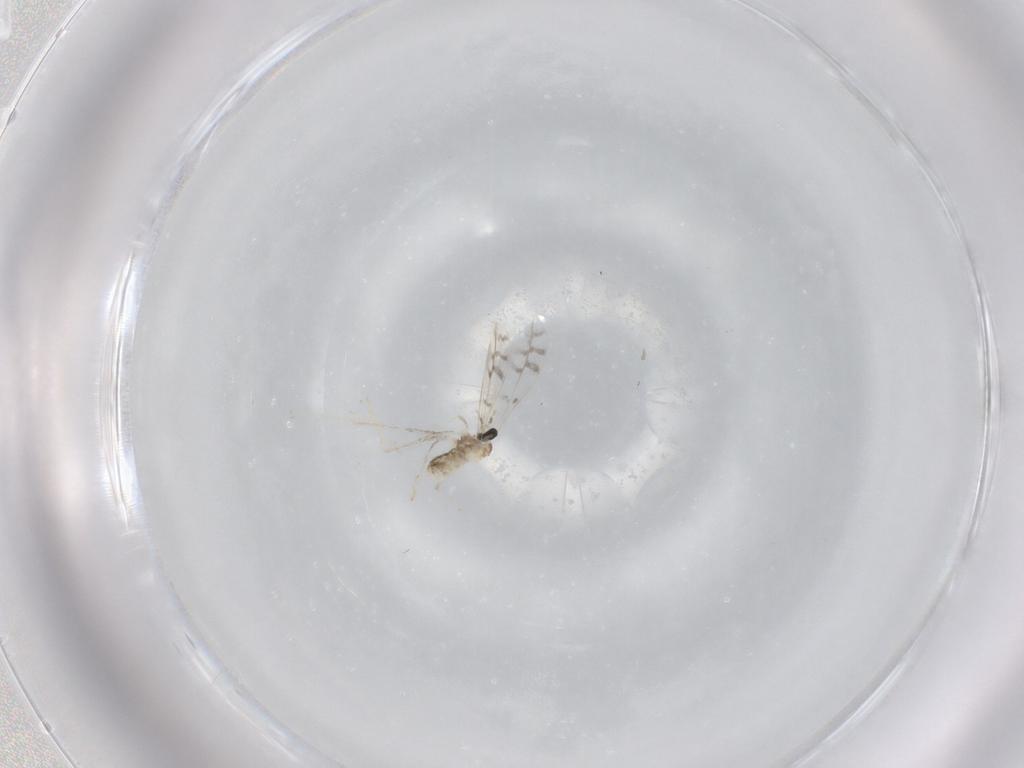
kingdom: Animalia
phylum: Arthropoda
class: Insecta
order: Diptera
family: Cecidomyiidae
